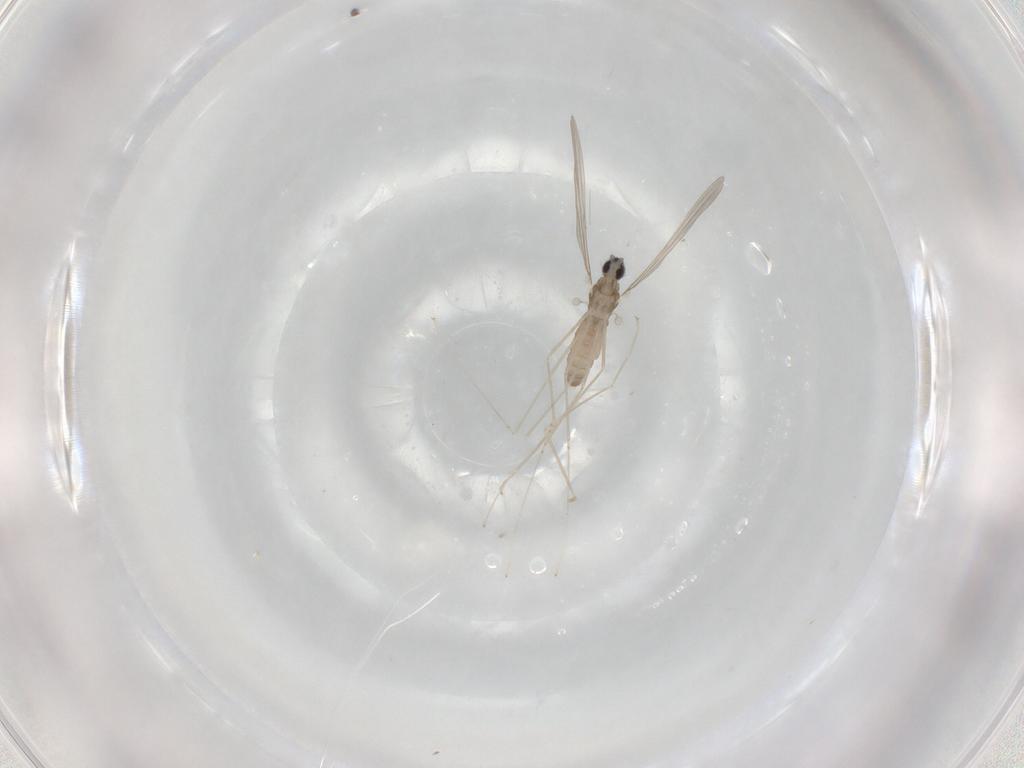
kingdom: Animalia
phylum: Arthropoda
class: Insecta
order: Diptera
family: Cecidomyiidae
